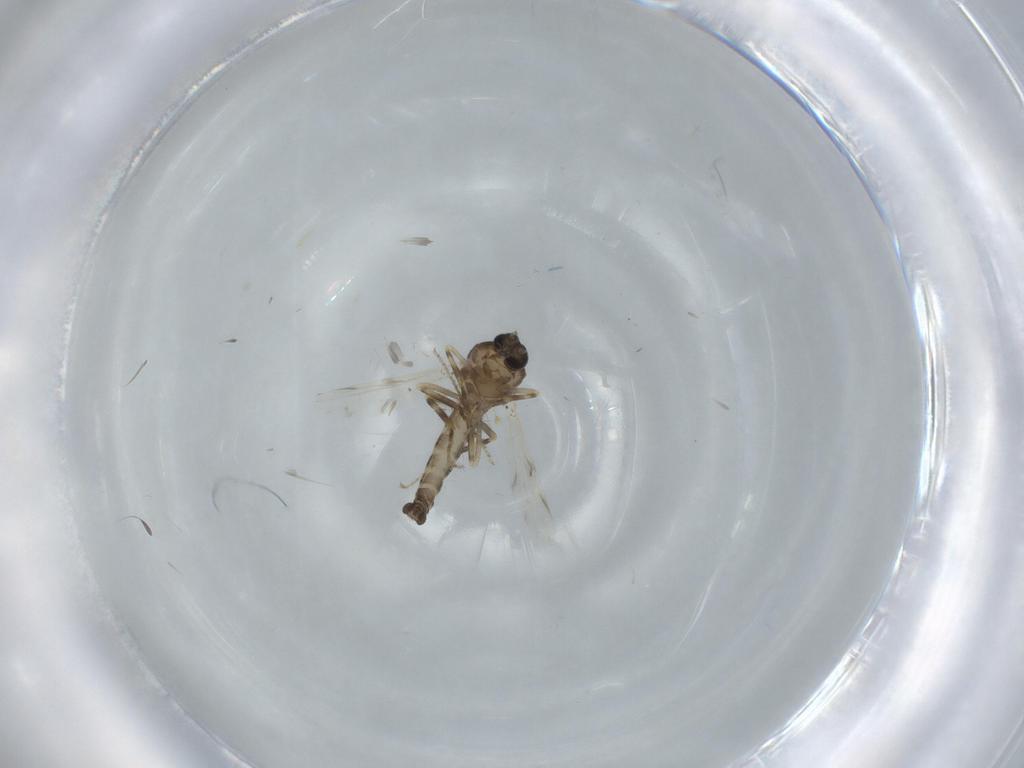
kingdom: Animalia
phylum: Arthropoda
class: Insecta
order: Diptera
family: Ceratopogonidae
